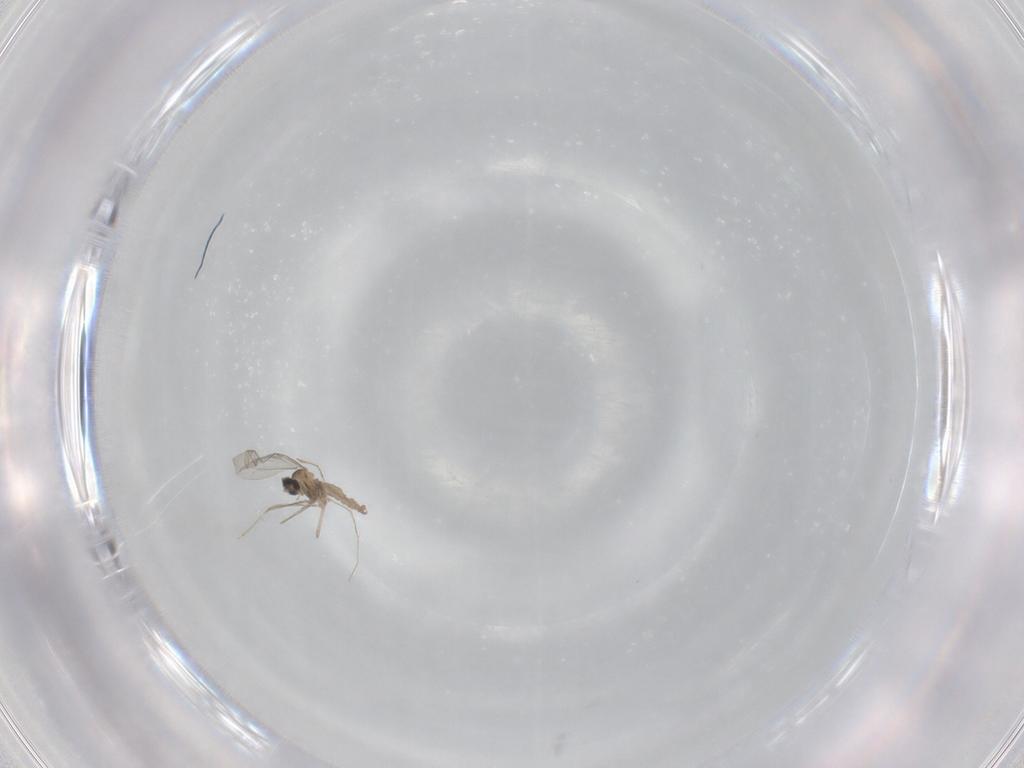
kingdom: Animalia
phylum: Arthropoda
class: Insecta
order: Diptera
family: Cecidomyiidae
